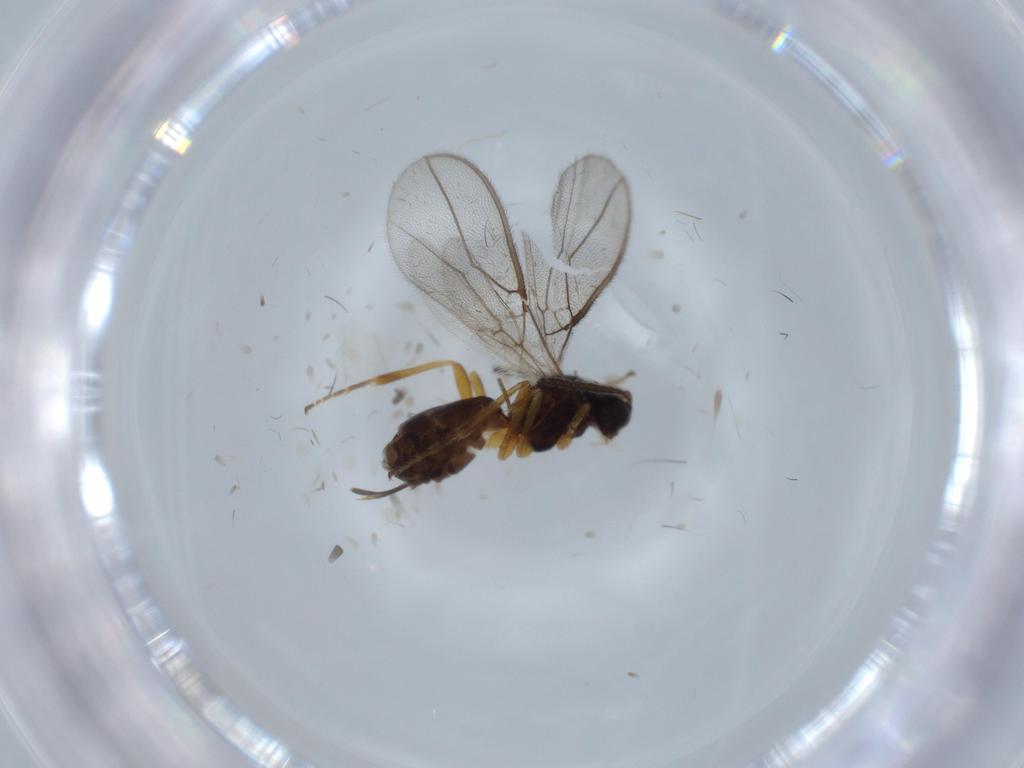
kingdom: Animalia
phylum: Arthropoda
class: Insecta
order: Hymenoptera
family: Braconidae
